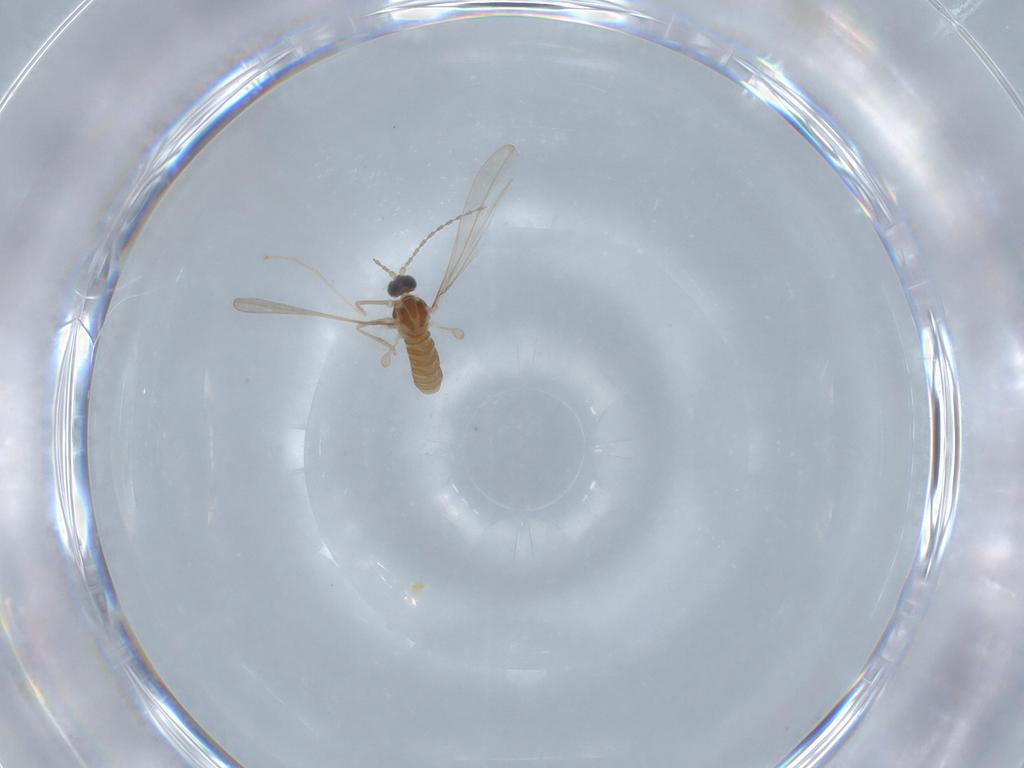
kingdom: Animalia
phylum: Arthropoda
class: Insecta
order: Diptera
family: Cecidomyiidae
